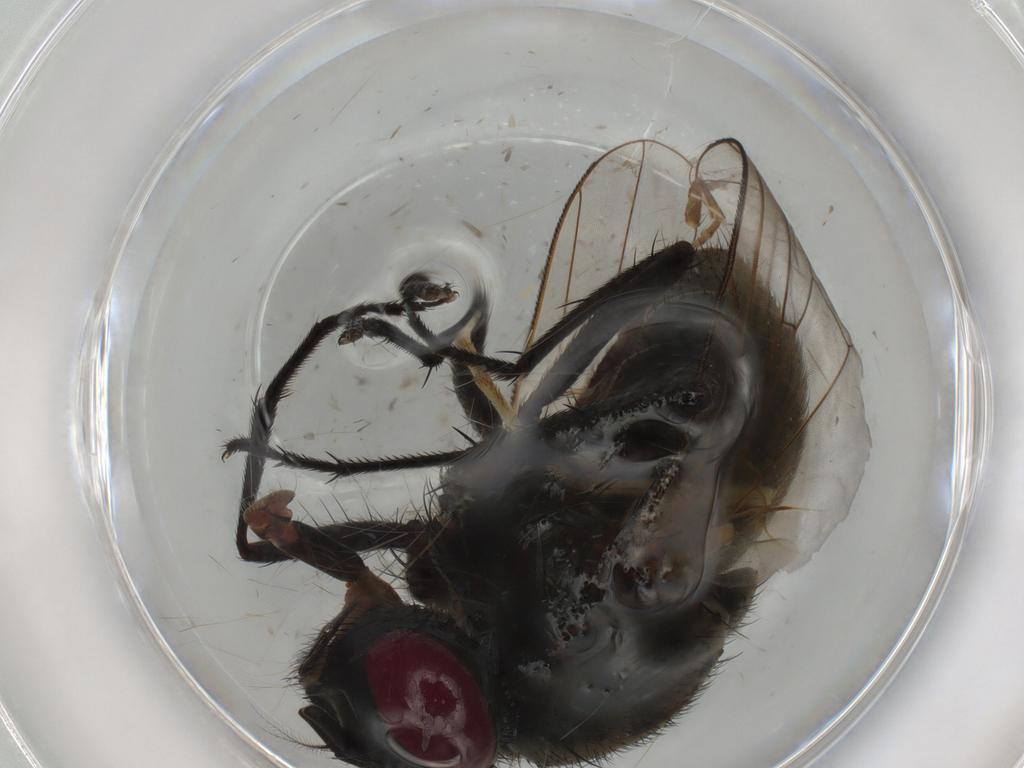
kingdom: Animalia
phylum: Arthropoda
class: Insecta
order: Diptera
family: Muscidae
